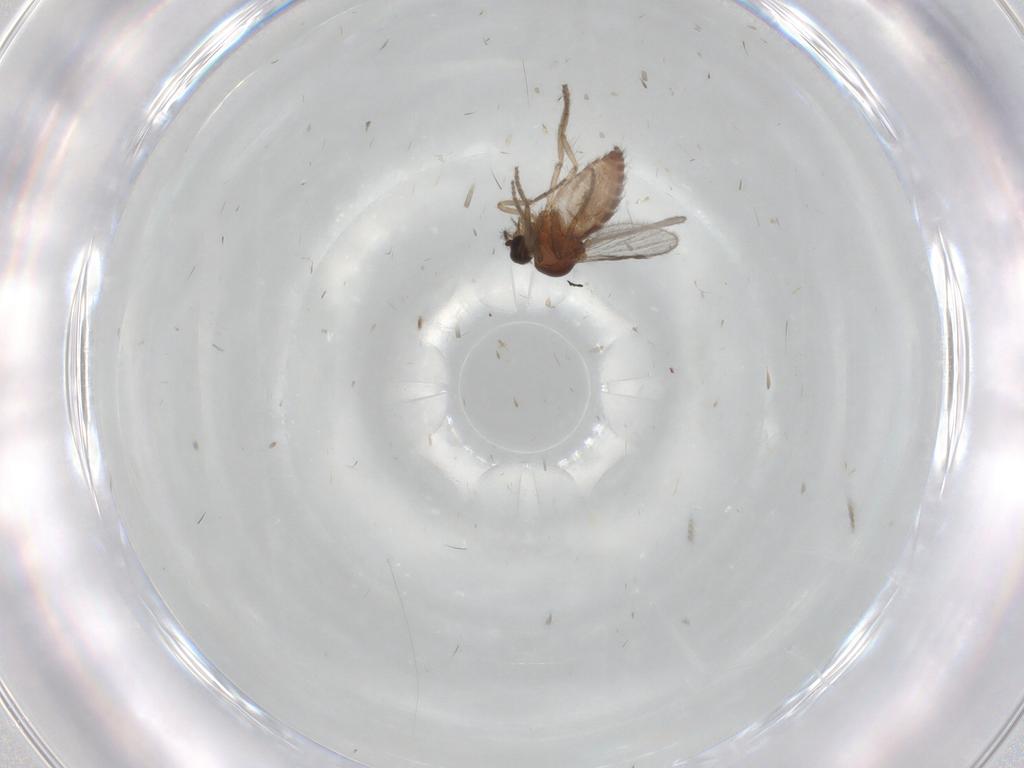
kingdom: Animalia
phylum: Arthropoda
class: Insecta
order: Diptera
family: Ceratopogonidae
